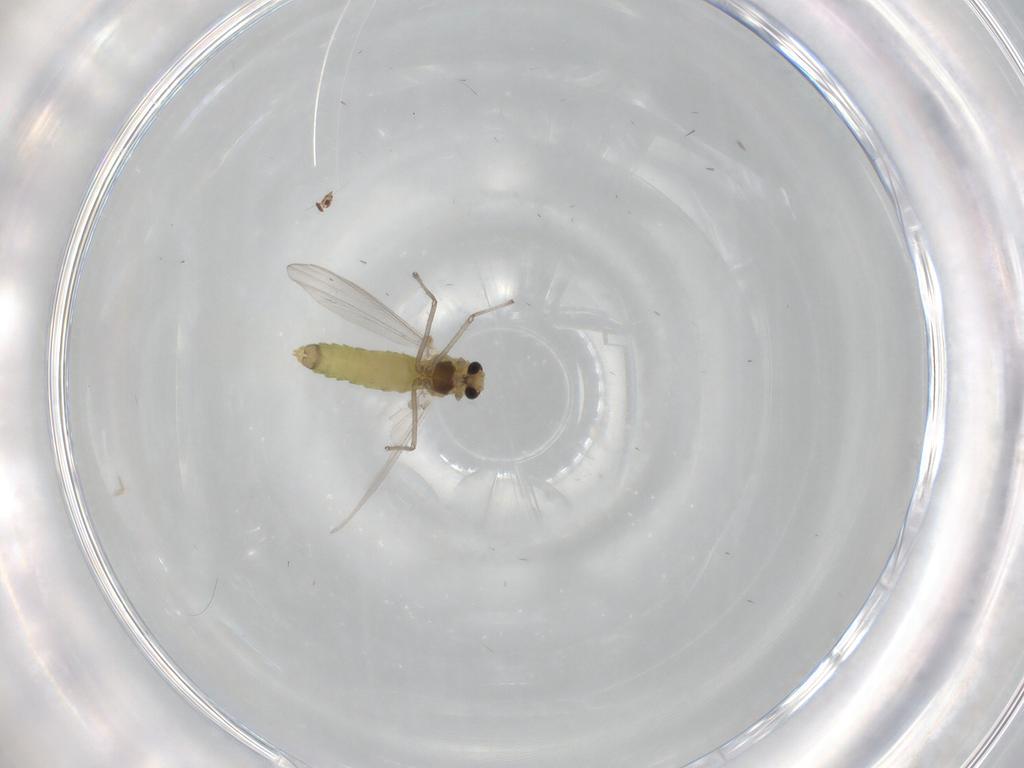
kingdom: Animalia
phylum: Arthropoda
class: Insecta
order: Diptera
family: Chironomidae
